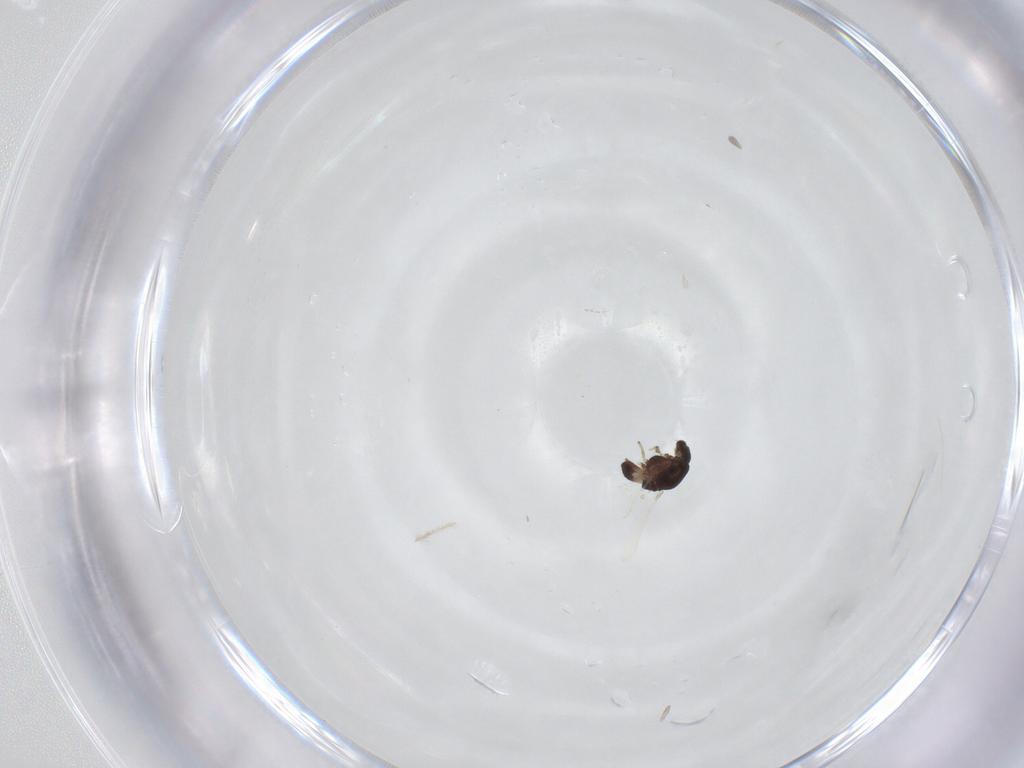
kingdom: Animalia
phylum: Arthropoda
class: Insecta
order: Diptera
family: Chironomidae
